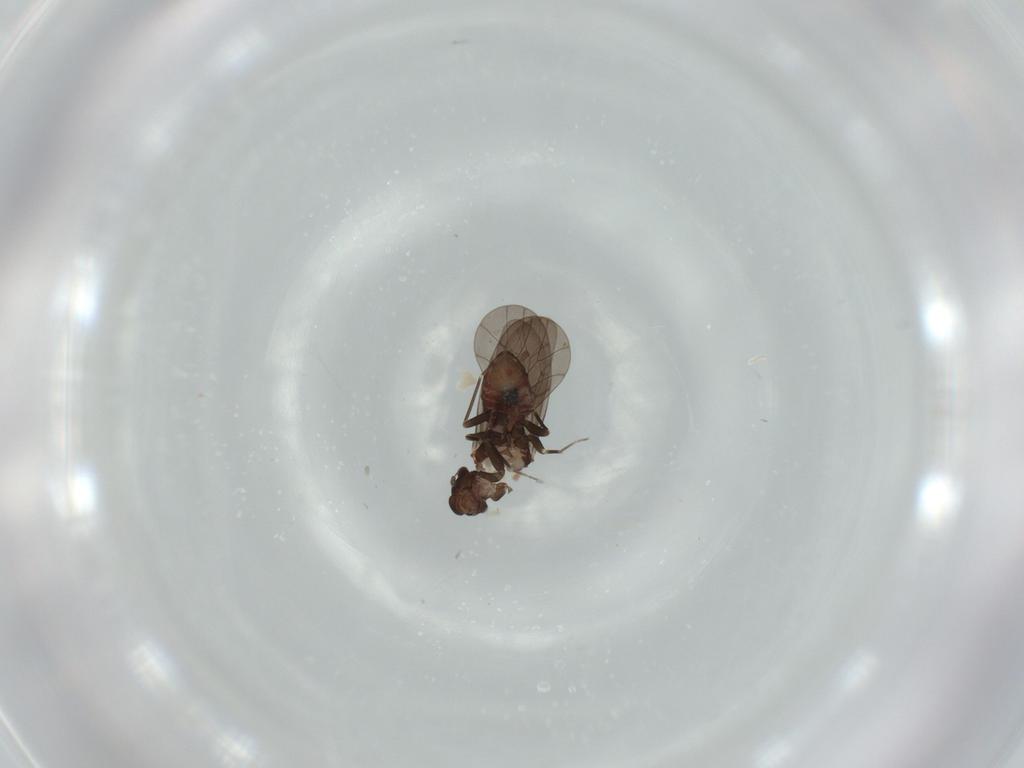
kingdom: Animalia
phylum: Arthropoda
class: Insecta
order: Psocodea
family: Lepidopsocidae
